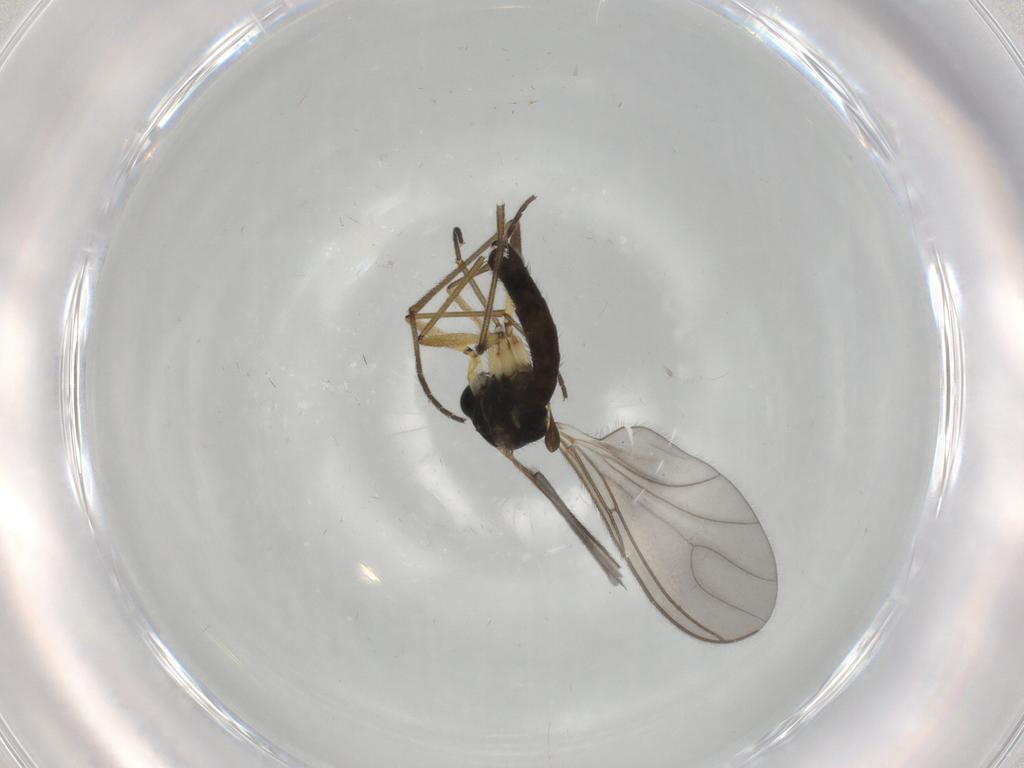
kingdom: Animalia
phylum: Arthropoda
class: Insecta
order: Diptera
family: Sciaridae
